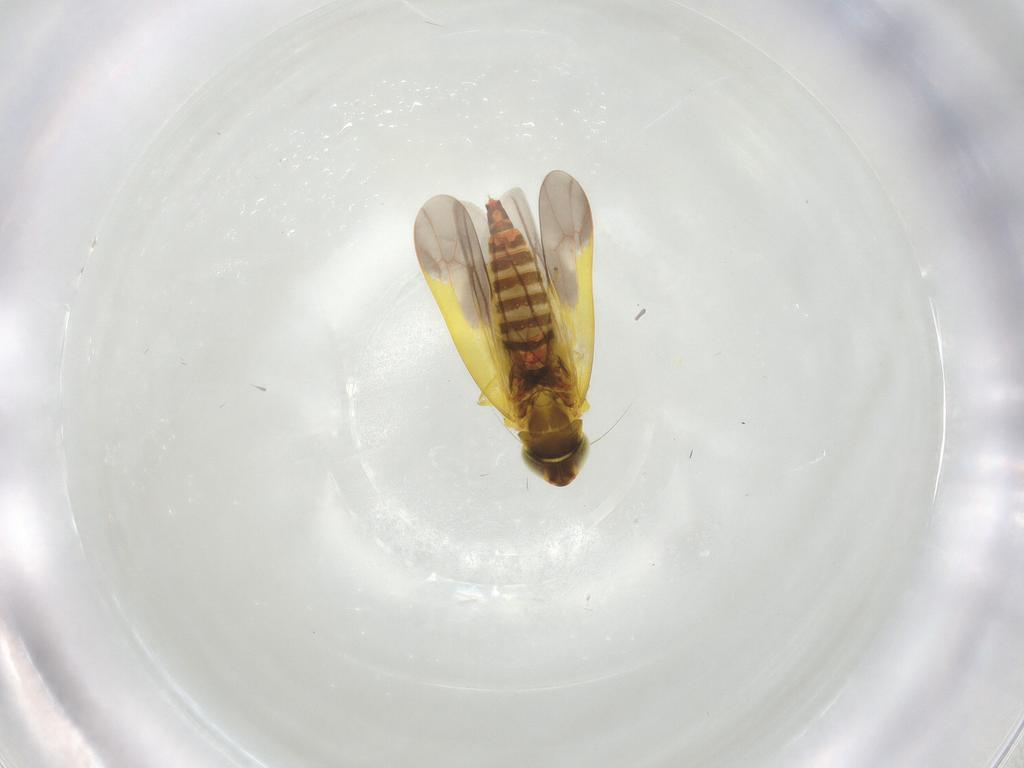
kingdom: Animalia
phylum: Arthropoda
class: Insecta
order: Hemiptera
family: Cicadellidae
